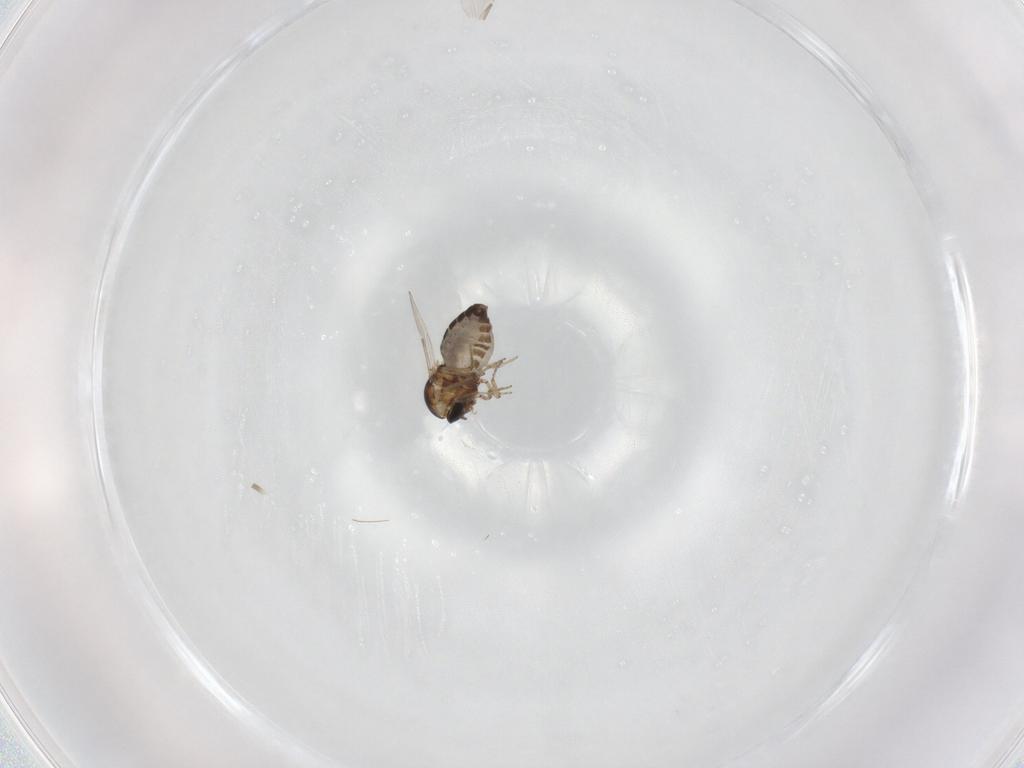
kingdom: Animalia
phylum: Arthropoda
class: Insecta
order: Diptera
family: Ceratopogonidae
